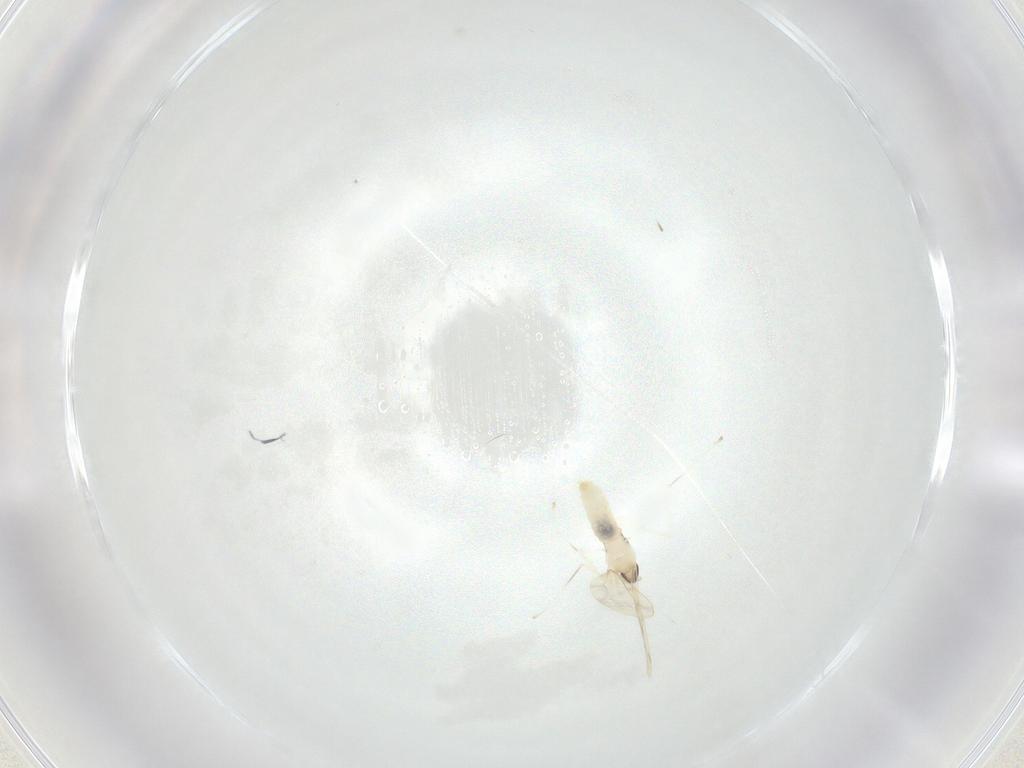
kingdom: Animalia
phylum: Arthropoda
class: Insecta
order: Diptera
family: Cecidomyiidae
